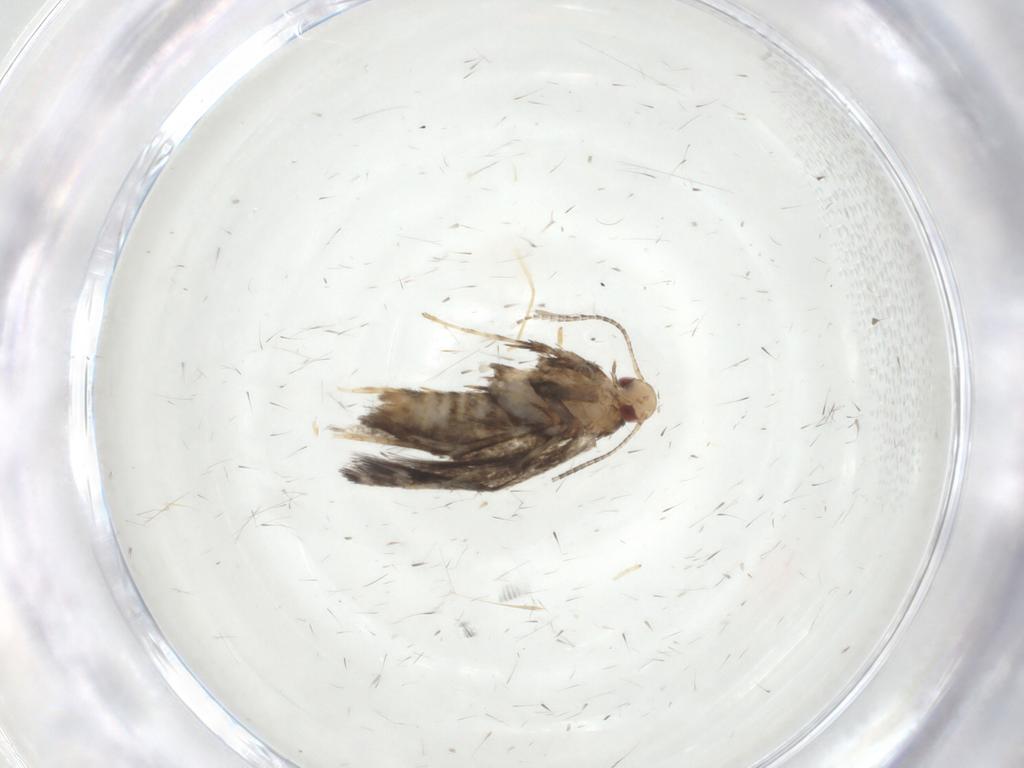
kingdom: Animalia
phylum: Arthropoda
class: Insecta
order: Lepidoptera
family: Gracillariidae
